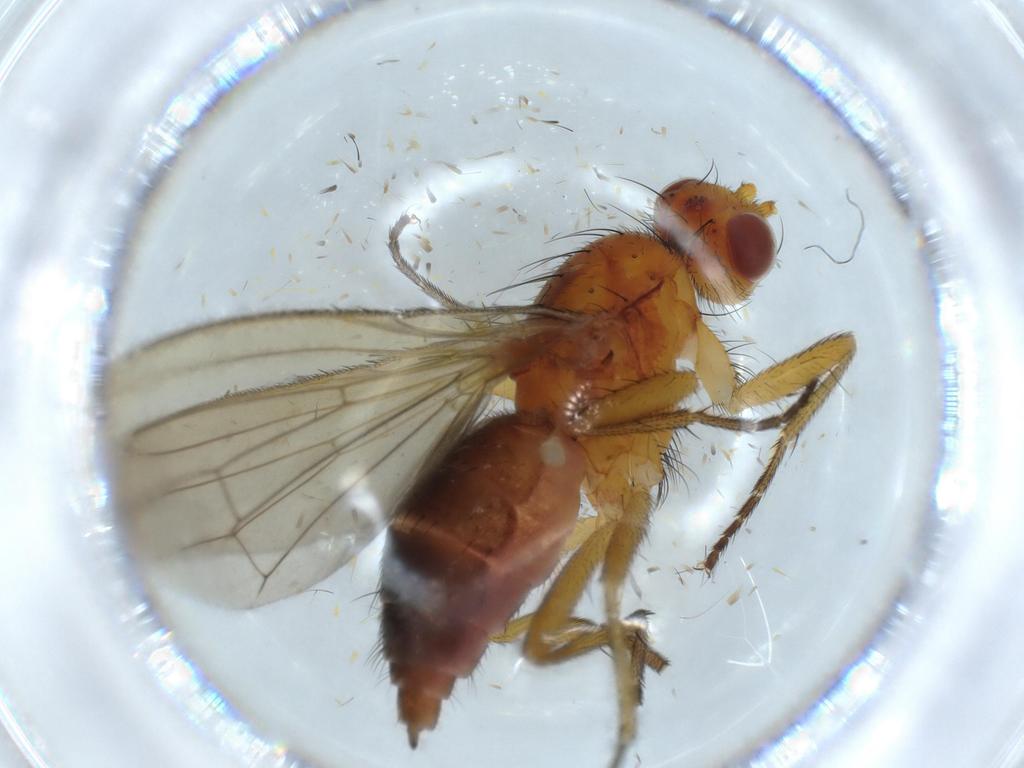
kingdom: Animalia
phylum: Arthropoda
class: Insecta
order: Diptera
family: Heleomyzidae
